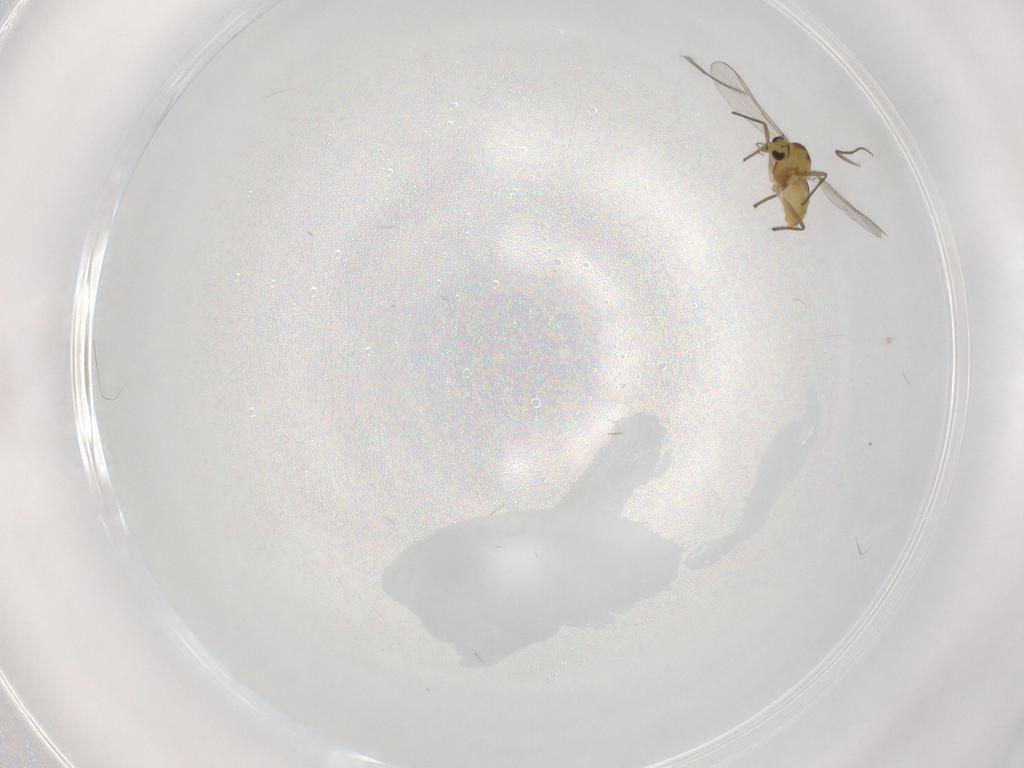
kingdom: Animalia
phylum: Arthropoda
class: Insecta
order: Diptera
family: Chironomidae
